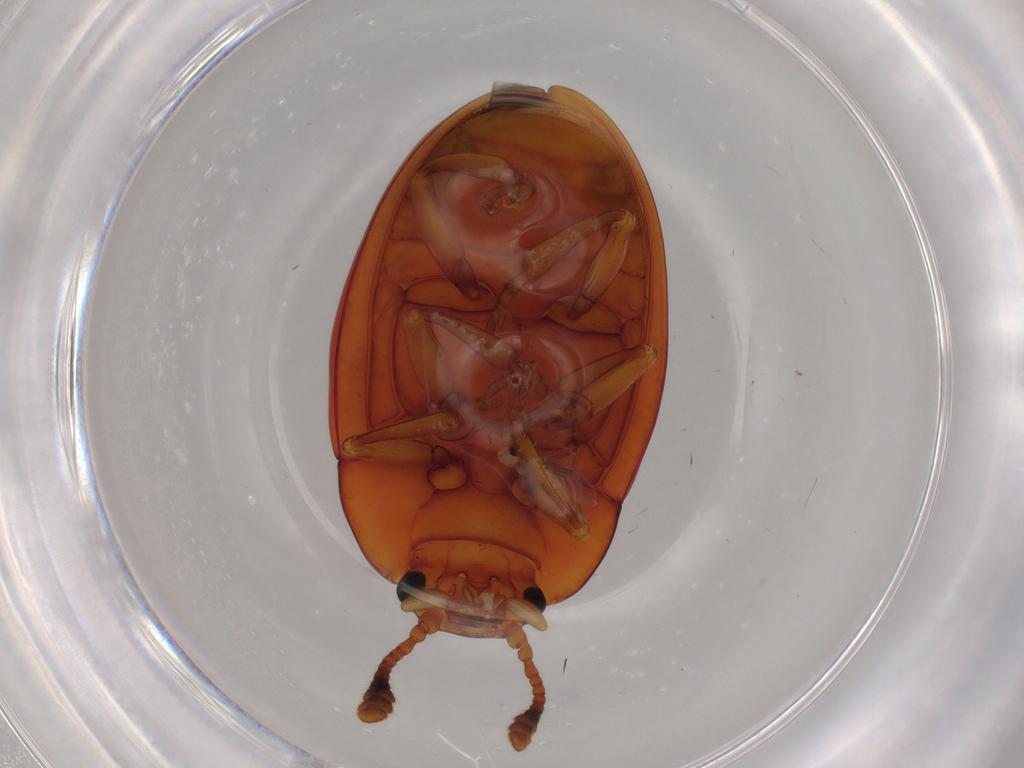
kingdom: Animalia
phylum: Arthropoda
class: Insecta
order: Coleoptera
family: Erotylidae
